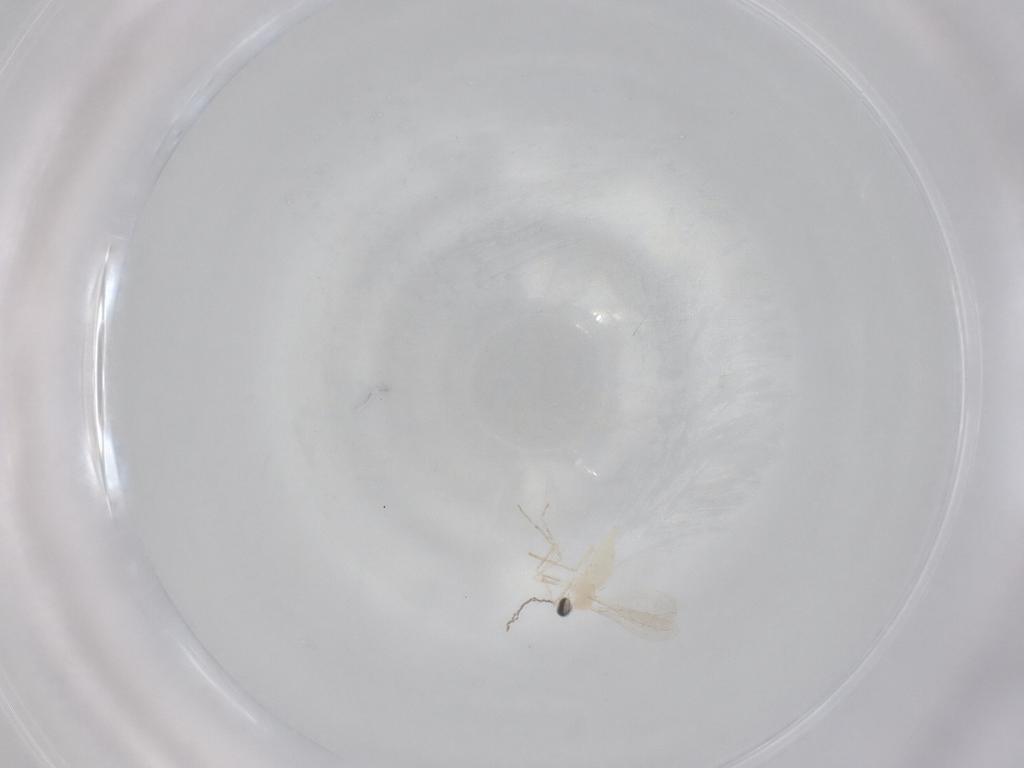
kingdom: Animalia
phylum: Arthropoda
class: Insecta
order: Diptera
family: Cecidomyiidae
